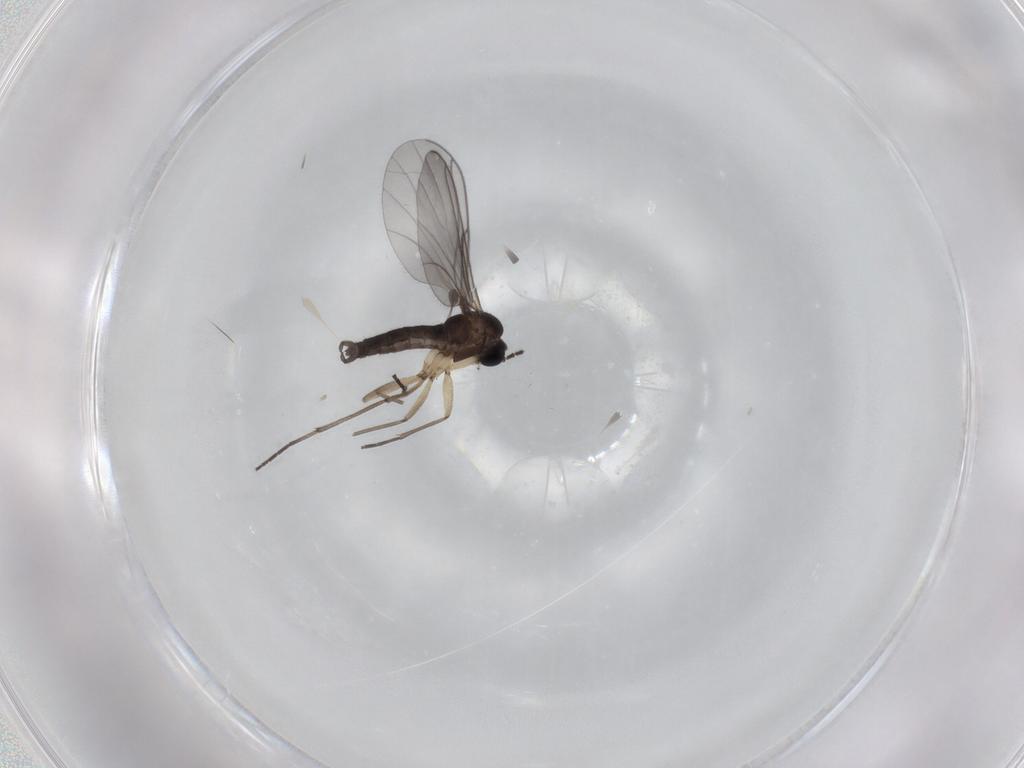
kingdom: Animalia
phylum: Arthropoda
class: Insecta
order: Diptera
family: Sciaridae
